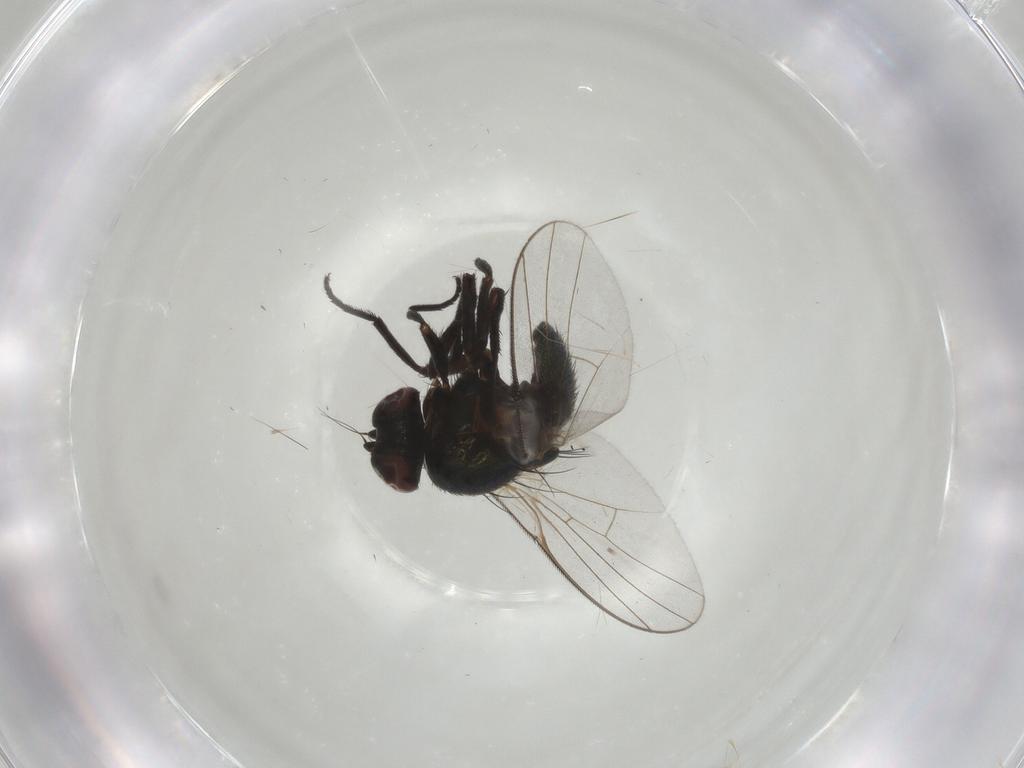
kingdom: Animalia
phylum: Arthropoda
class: Insecta
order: Diptera
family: Agromyzidae
